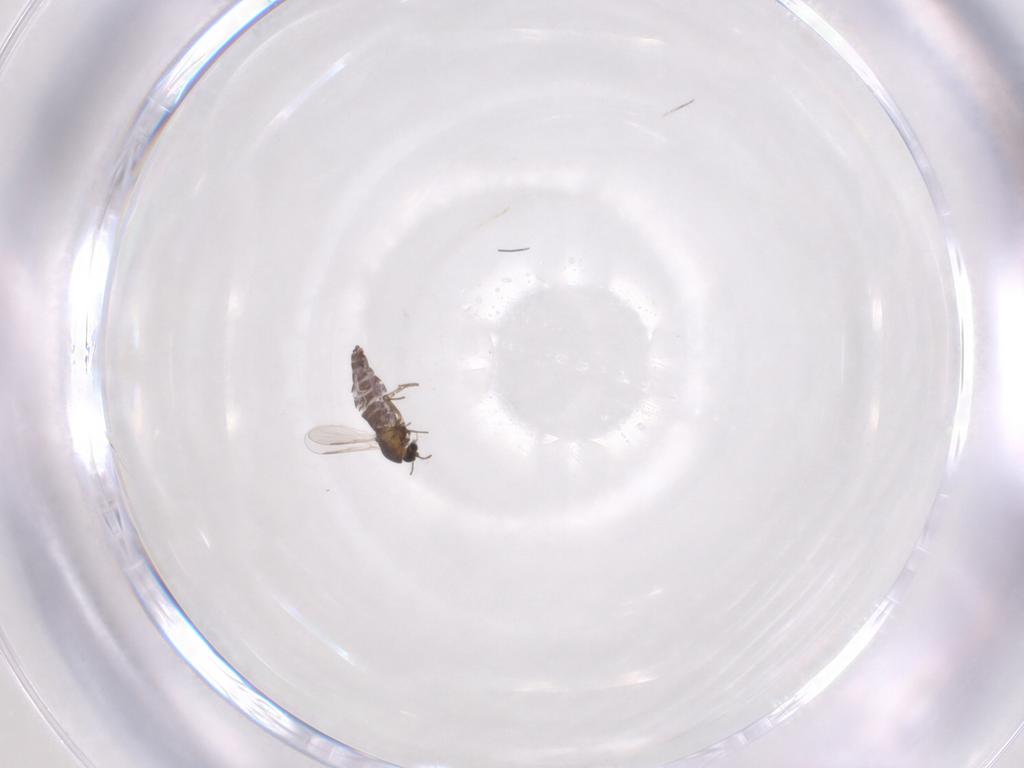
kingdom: Animalia
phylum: Arthropoda
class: Insecta
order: Diptera
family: Chironomidae
